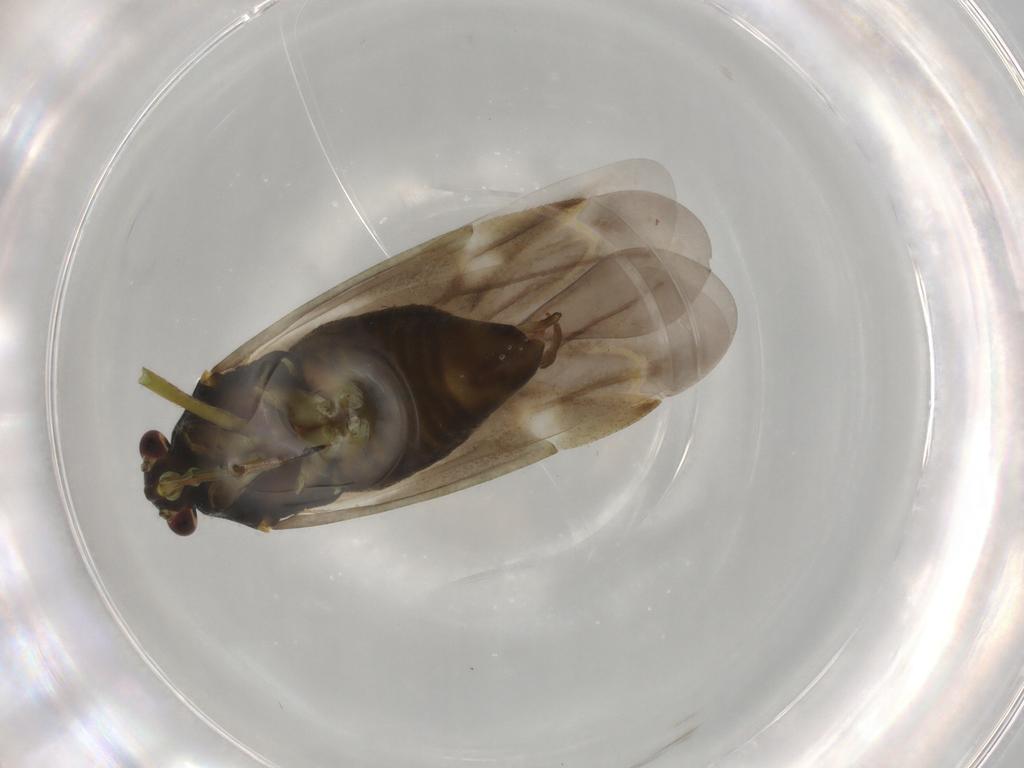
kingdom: Animalia
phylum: Arthropoda
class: Insecta
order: Hemiptera
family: Miridae
